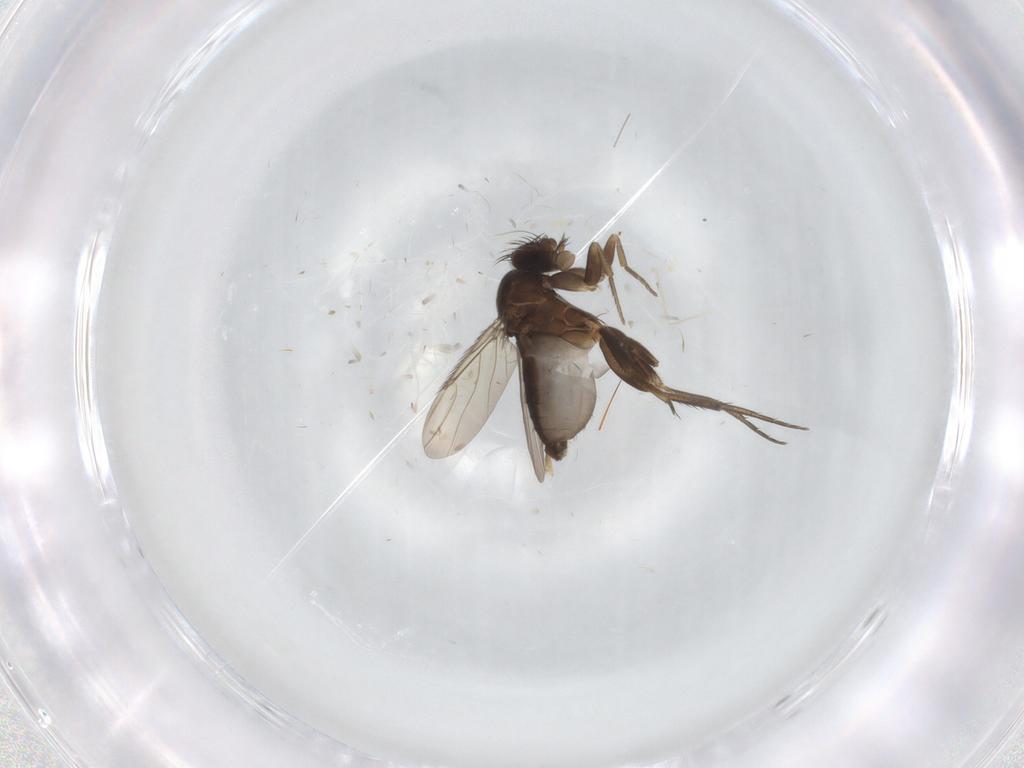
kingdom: Animalia
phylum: Arthropoda
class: Insecta
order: Diptera
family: Phoridae
